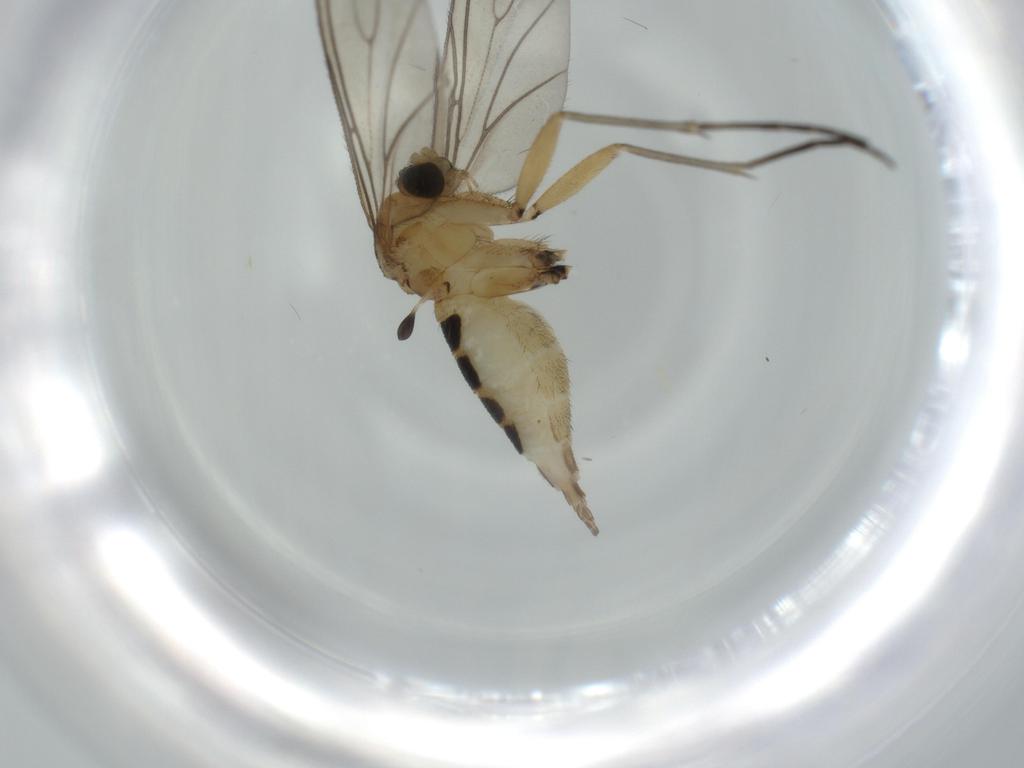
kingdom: Animalia
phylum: Arthropoda
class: Insecta
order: Diptera
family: Sciaridae
